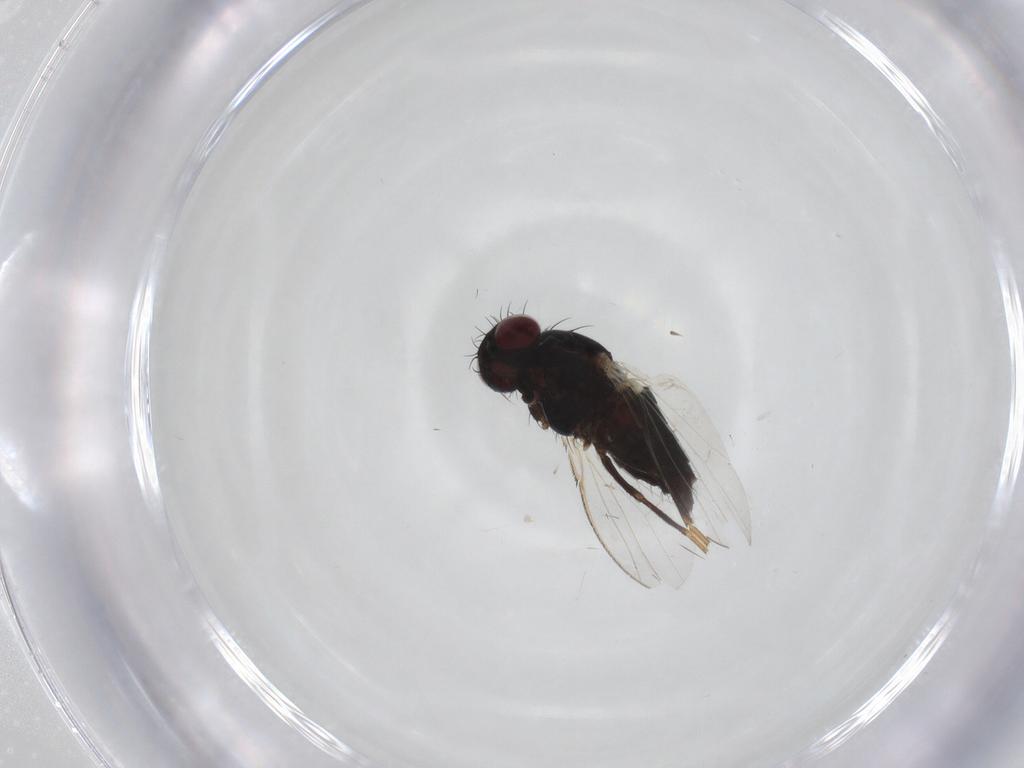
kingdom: Animalia
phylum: Arthropoda
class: Insecta
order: Diptera
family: Carnidae
